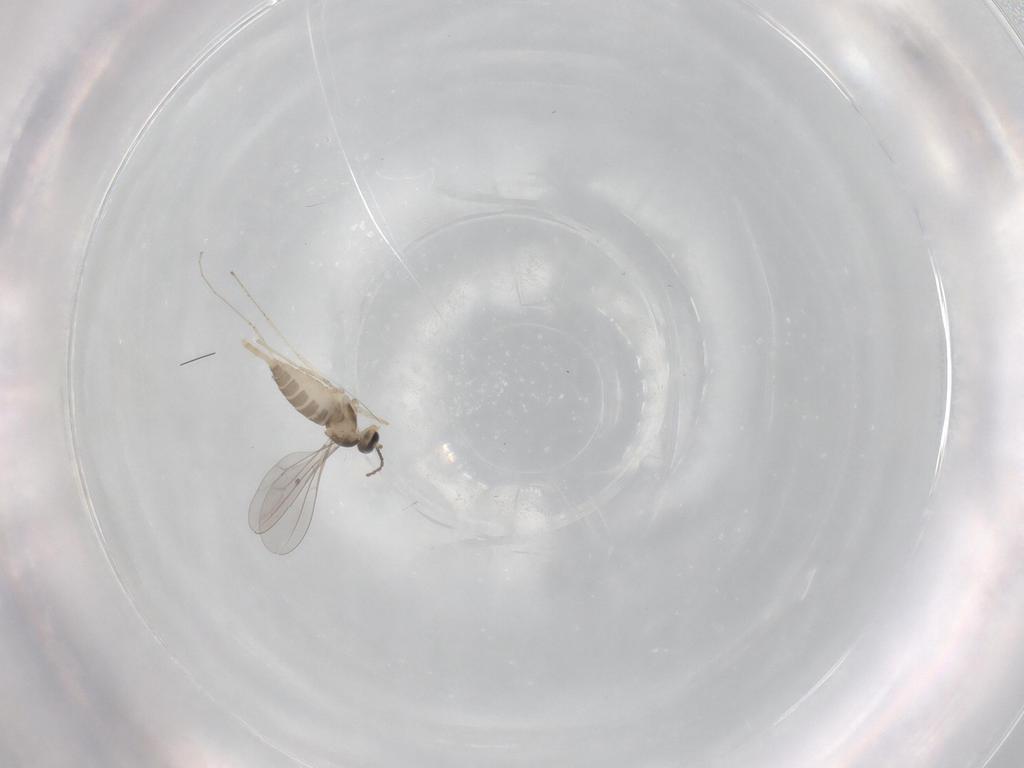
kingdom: Animalia
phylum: Arthropoda
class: Insecta
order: Diptera
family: Cecidomyiidae
